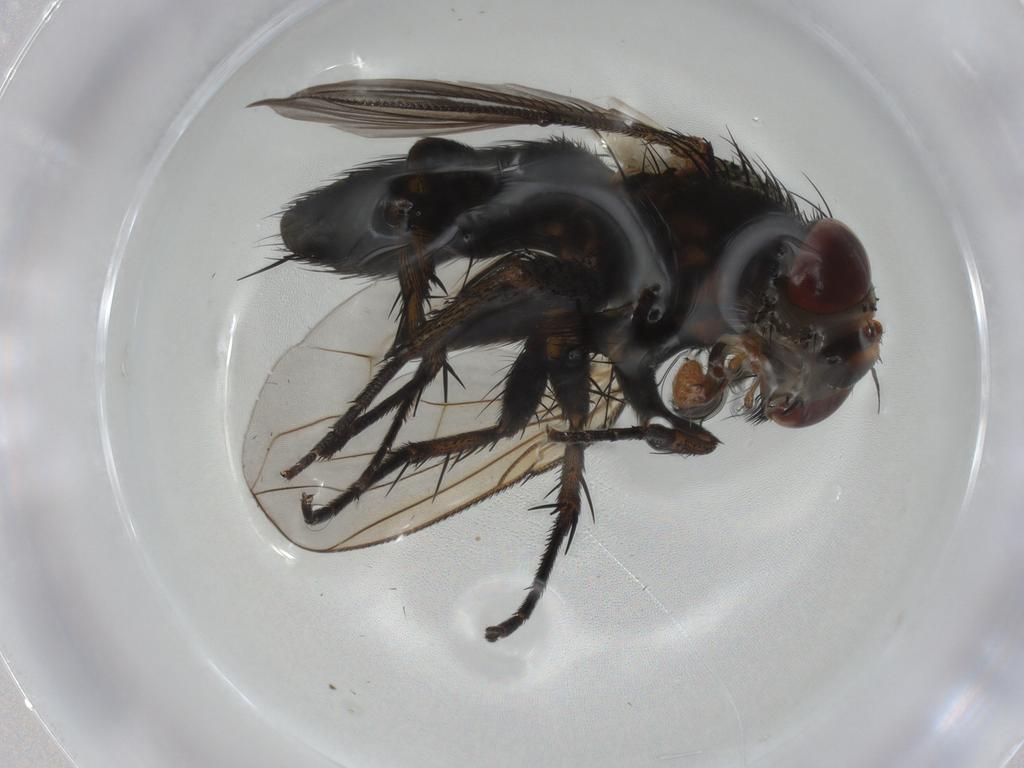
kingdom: Animalia
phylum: Arthropoda
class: Insecta
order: Diptera
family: Tachinidae
